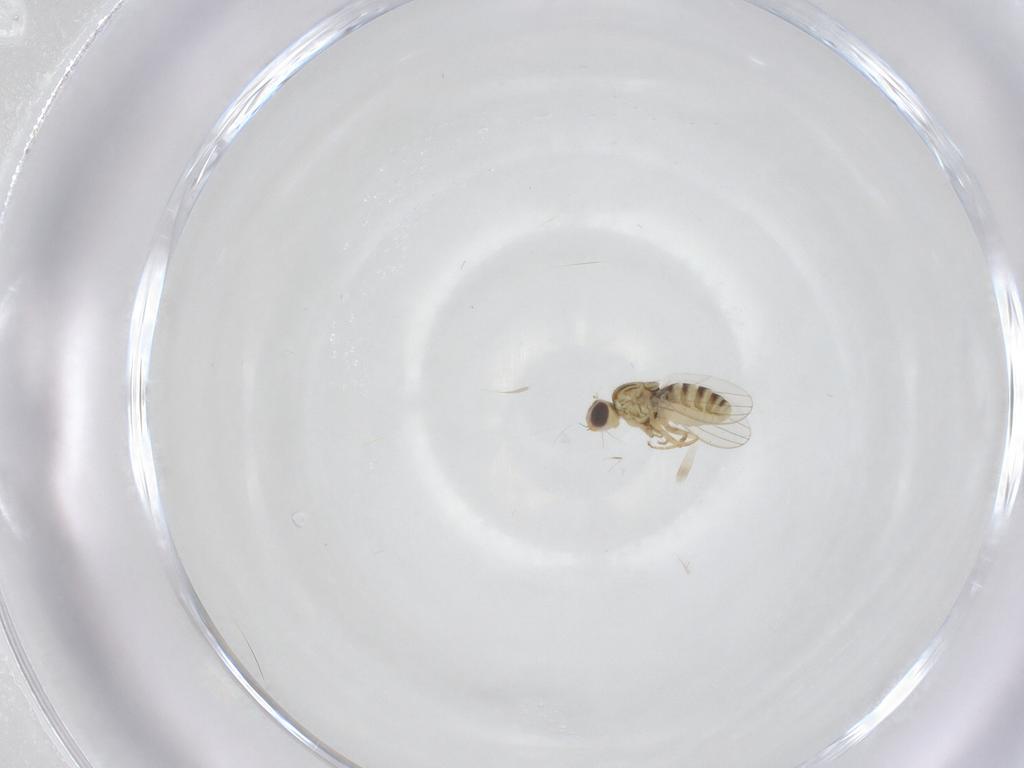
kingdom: Animalia
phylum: Arthropoda
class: Insecta
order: Diptera
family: Chyromyidae
